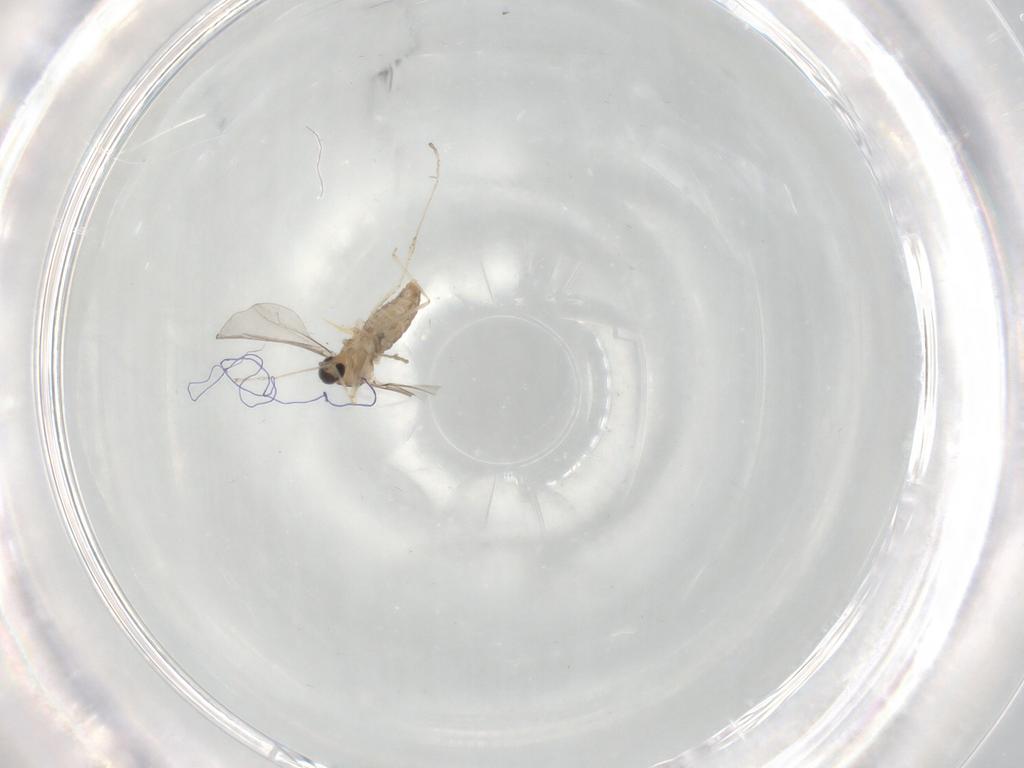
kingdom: Animalia
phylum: Arthropoda
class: Insecta
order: Diptera
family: Cecidomyiidae
